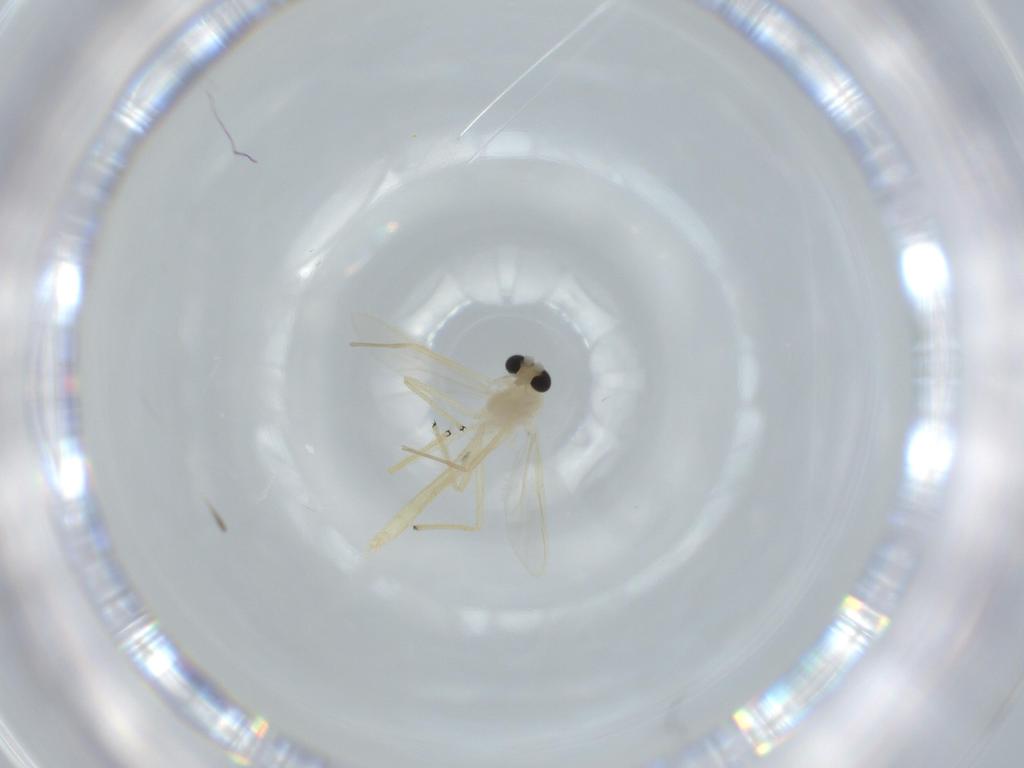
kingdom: Animalia
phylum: Arthropoda
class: Insecta
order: Diptera
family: Chironomidae
